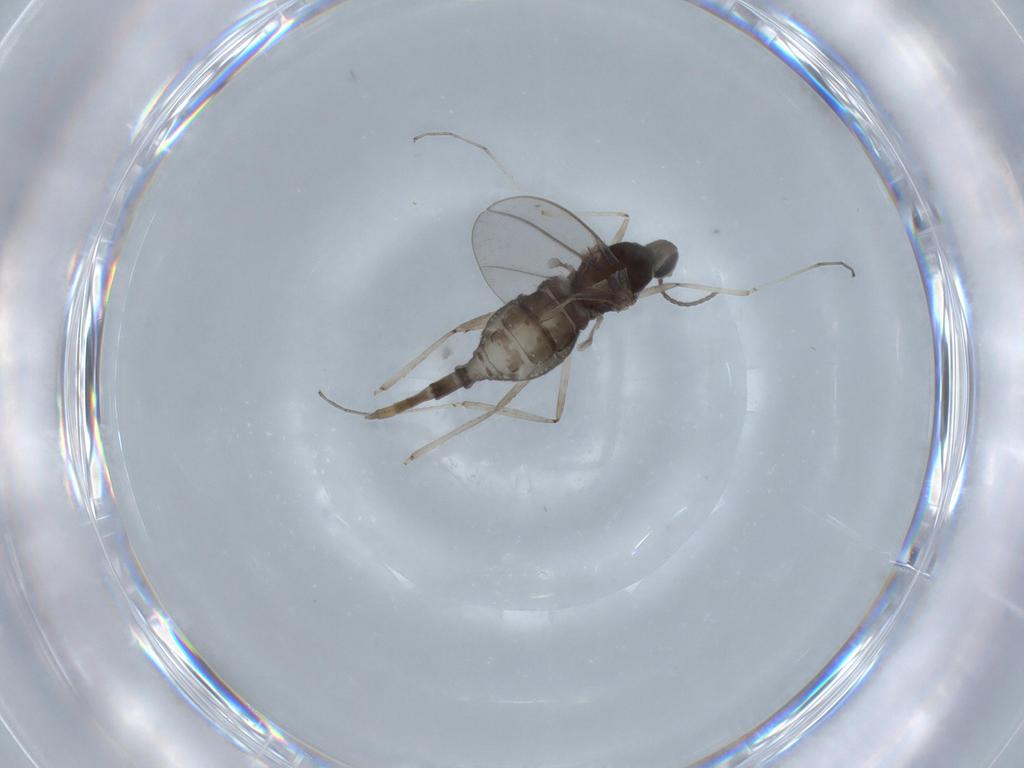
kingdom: Animalia
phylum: Arthropoda
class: Insecta
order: Diptera
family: Cecidomyiidae
